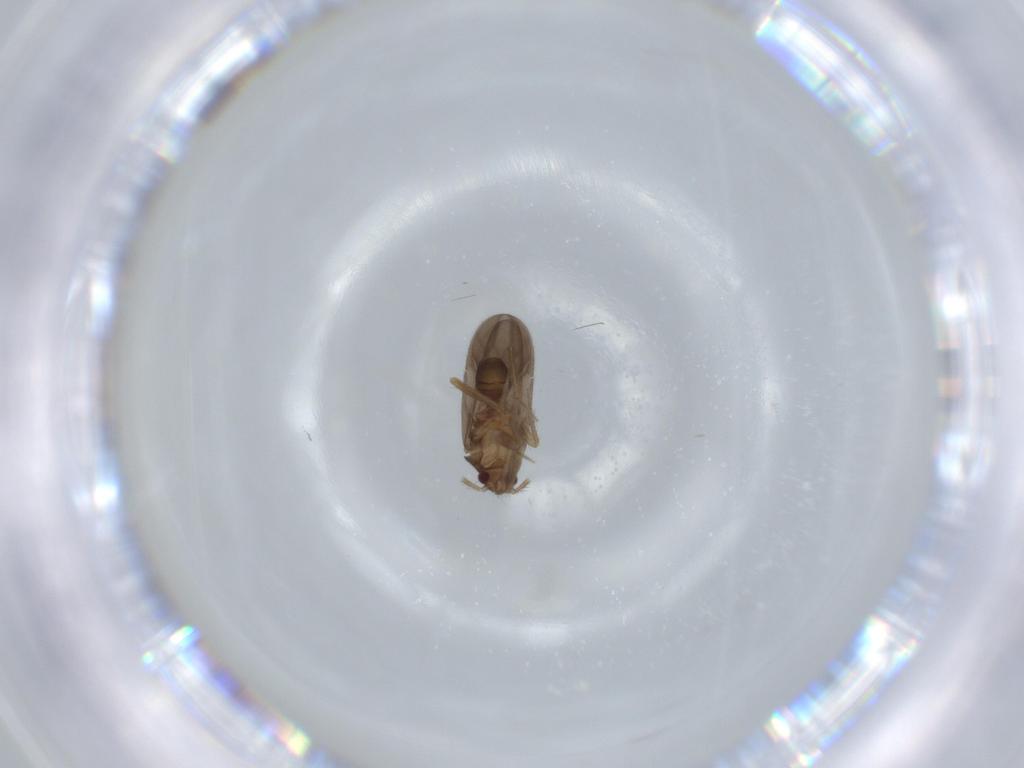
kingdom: Animalia
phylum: Arthropoda
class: Insecta
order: Hemiptera
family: Ceratocombidae
